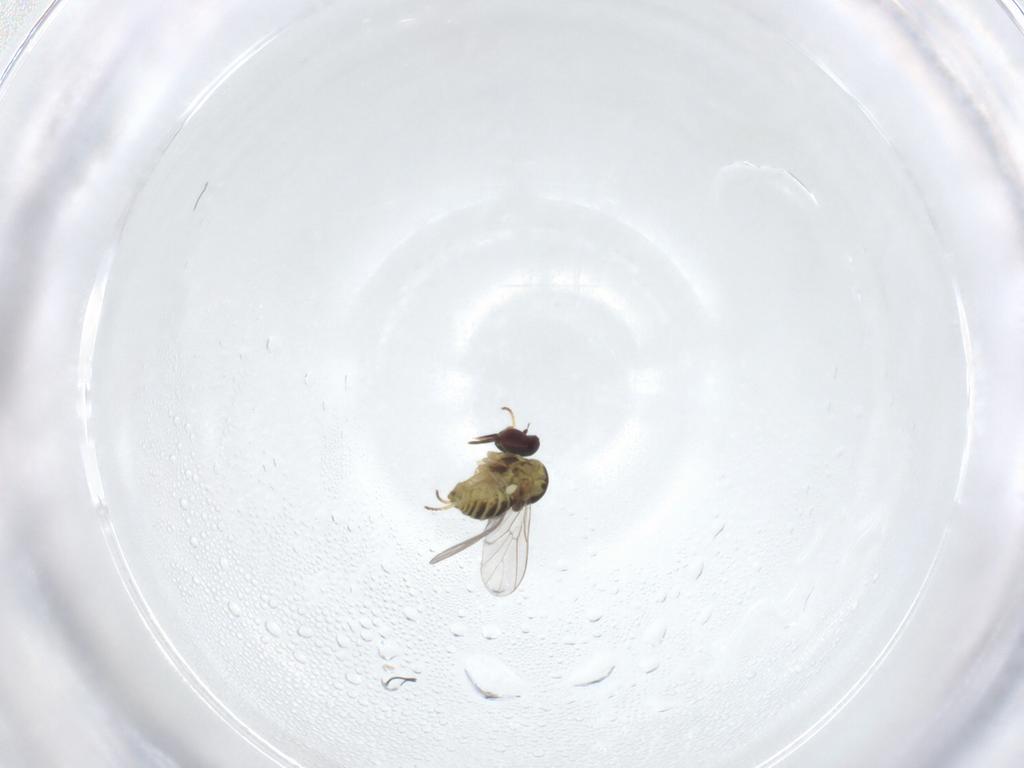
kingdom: Animalia
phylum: Arthropoda
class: Insecta
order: Diptera
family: Mythicomyiidae
